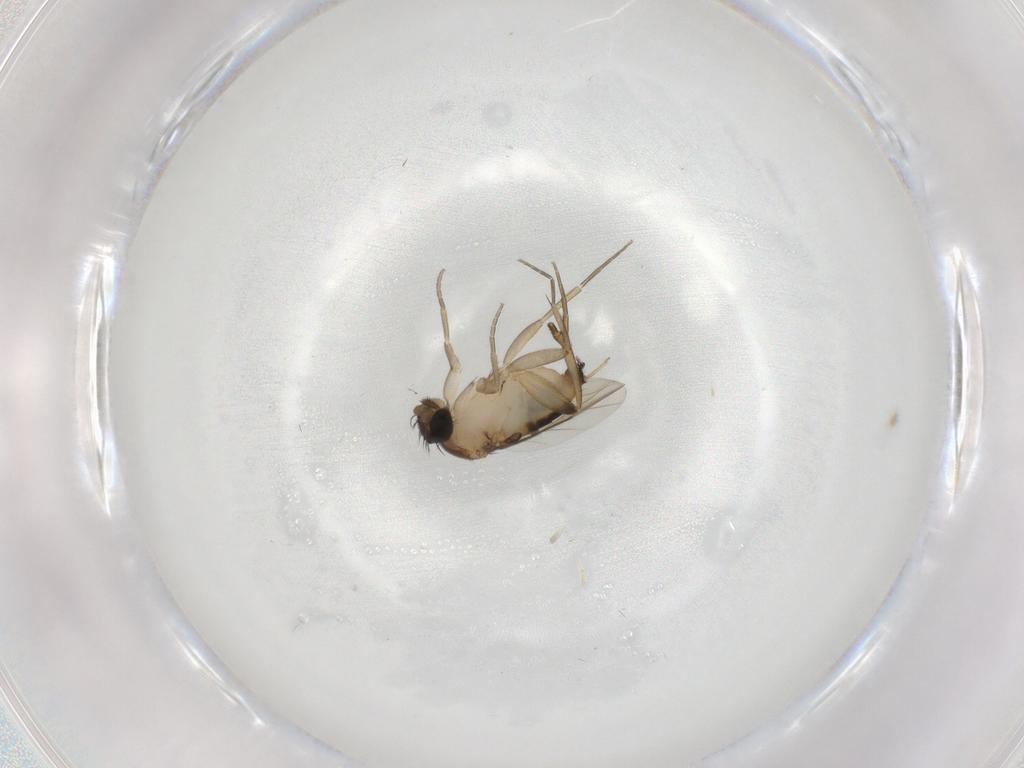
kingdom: Animalia
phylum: Arthropoda
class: Insecta
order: Diptera
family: Phoridae
